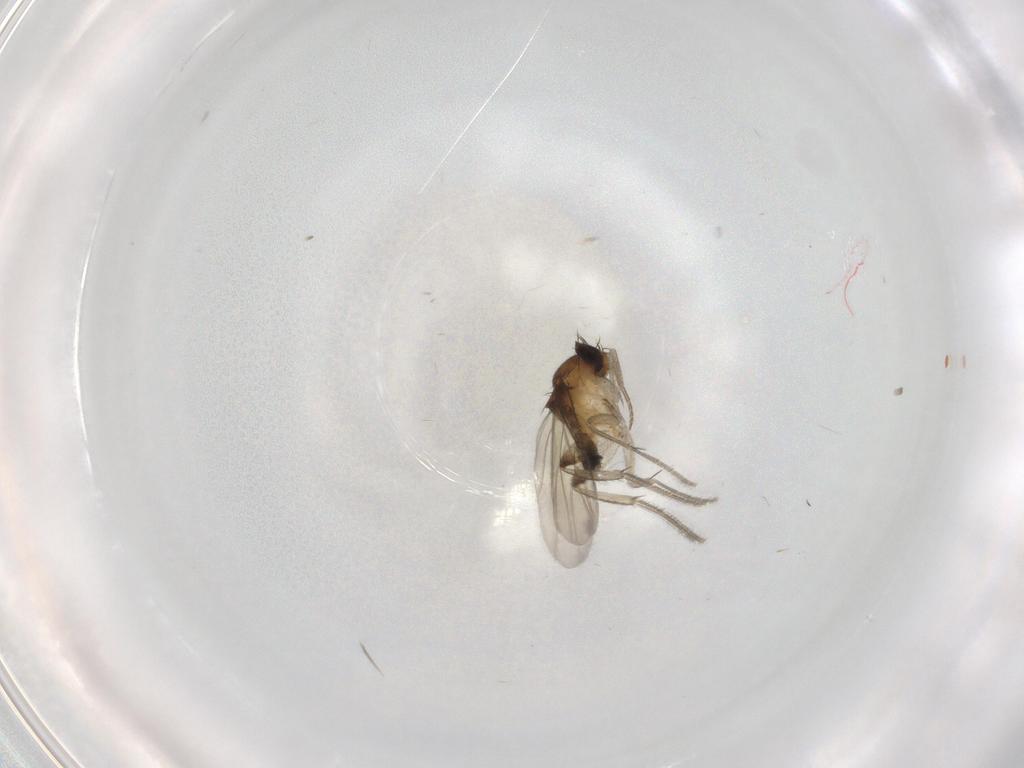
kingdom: Animalia
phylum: Arthropoda
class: Insecta
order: Diptera
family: Phoridae
